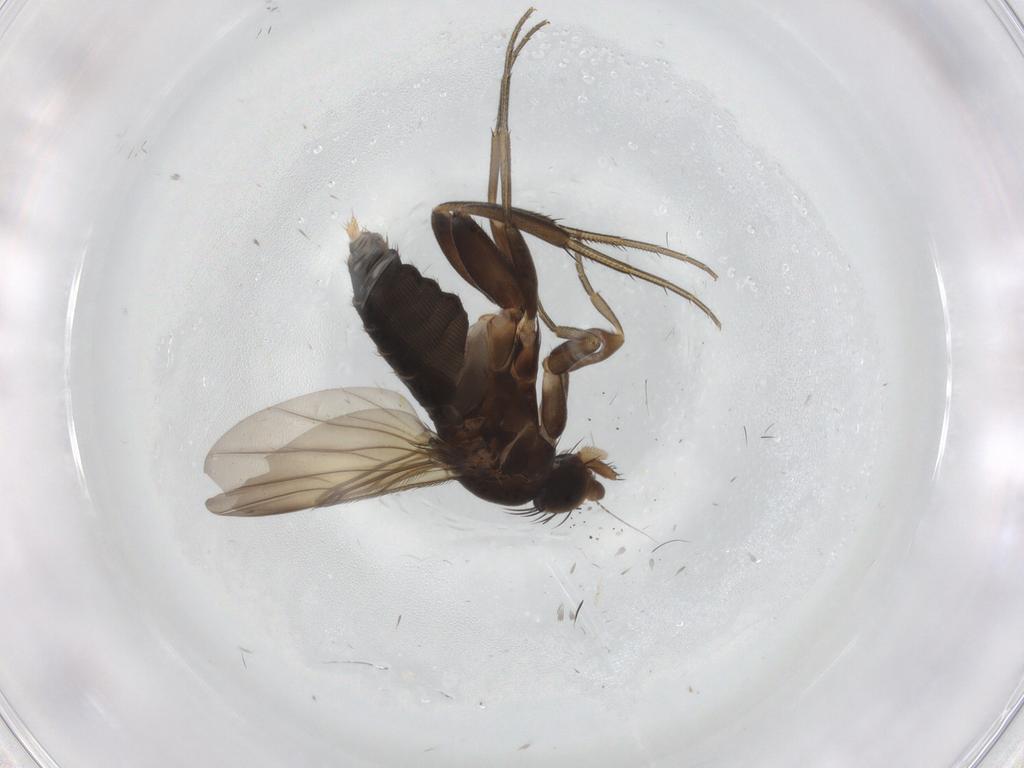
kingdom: Animalia
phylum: Arthropoda
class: Insecta
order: Diptera
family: Phoridae
